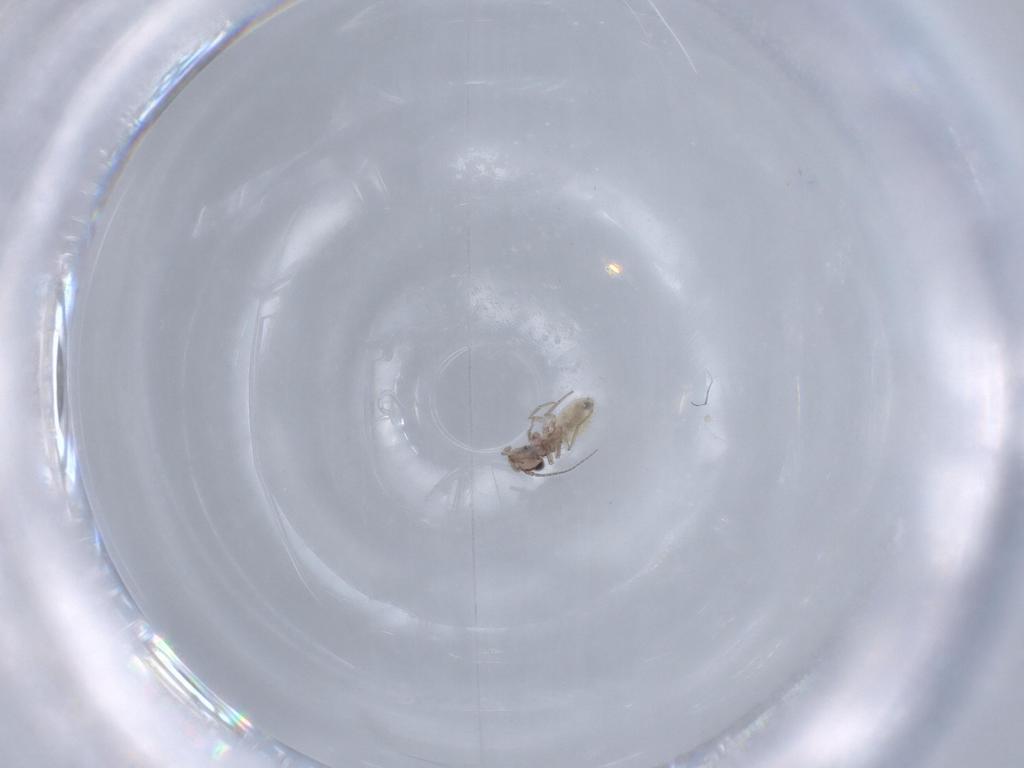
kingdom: Animalia
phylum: Arthropoda
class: Insecta
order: Psocodea
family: Lepidopsocidae
